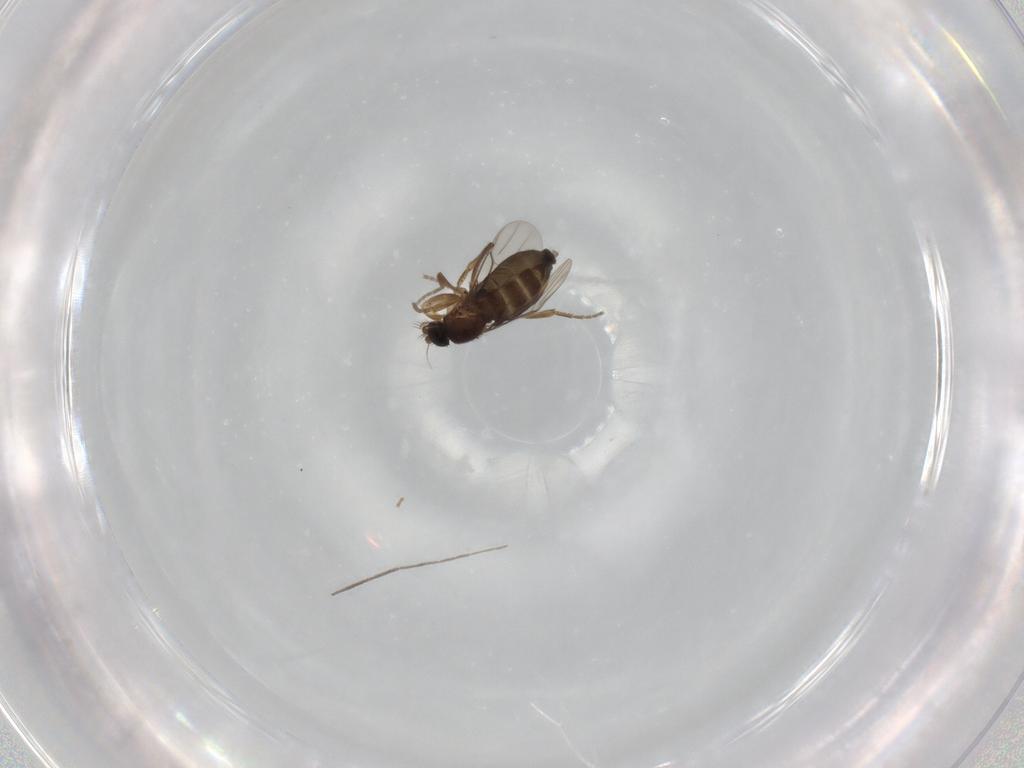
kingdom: Animalia
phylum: Arthropoda
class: Insecta
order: Diptera
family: Phoridae
